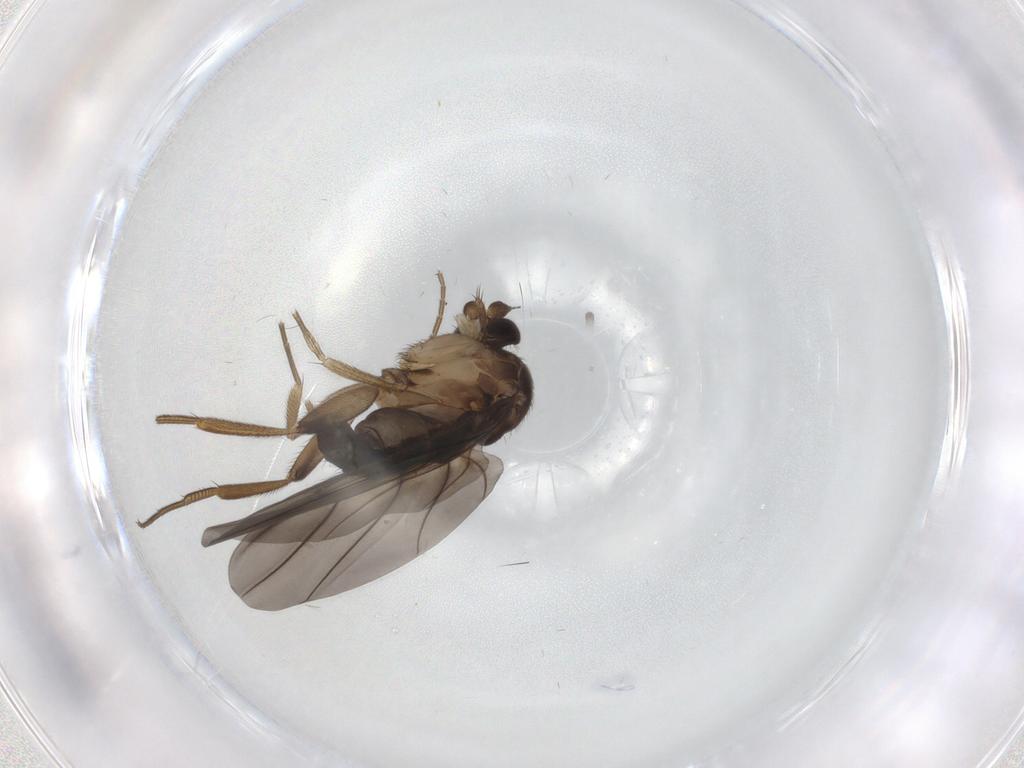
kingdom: Animalia
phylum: Arthropoda
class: Insecta
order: Diptera
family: Phoridae
